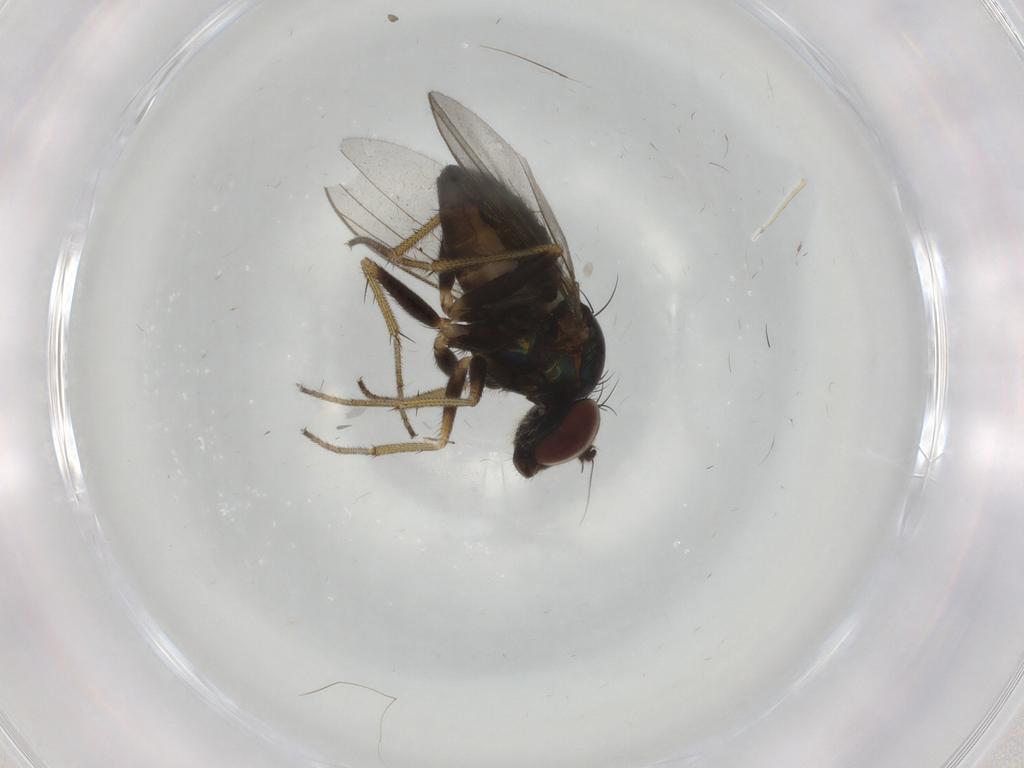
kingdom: Animalia
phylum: Arthropoda
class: Insecta
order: Diptera
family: Dolichopodidae
